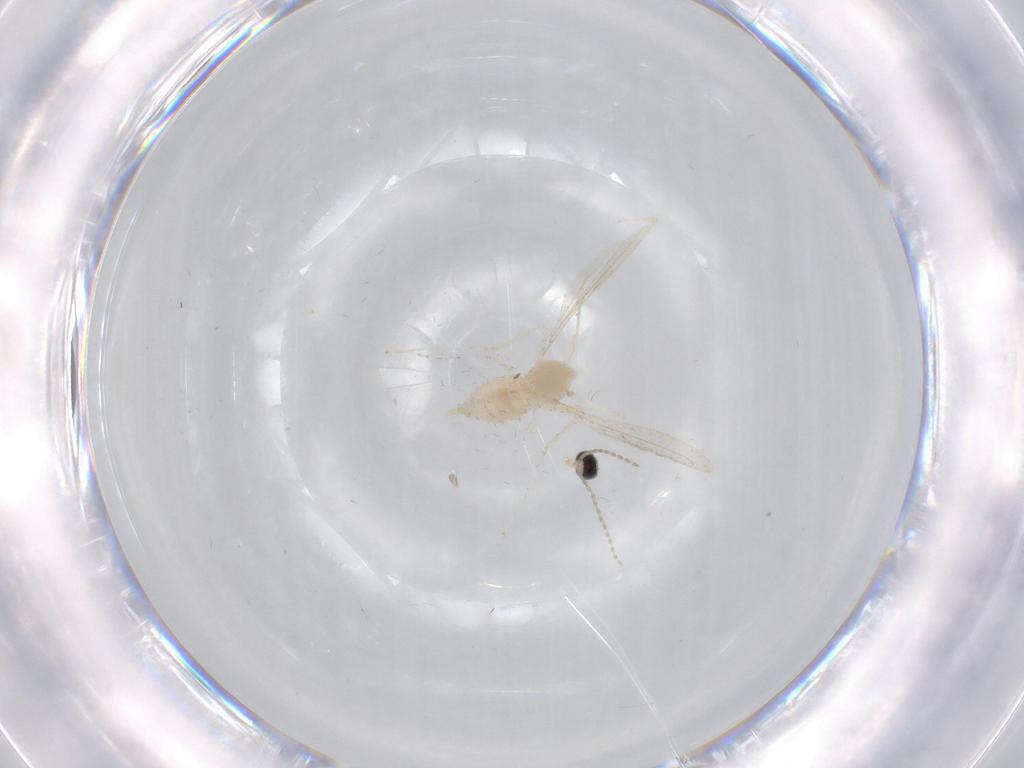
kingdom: Animalia
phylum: Arthropoda
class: Insecta
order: Diptera
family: Cecidomyiidae
